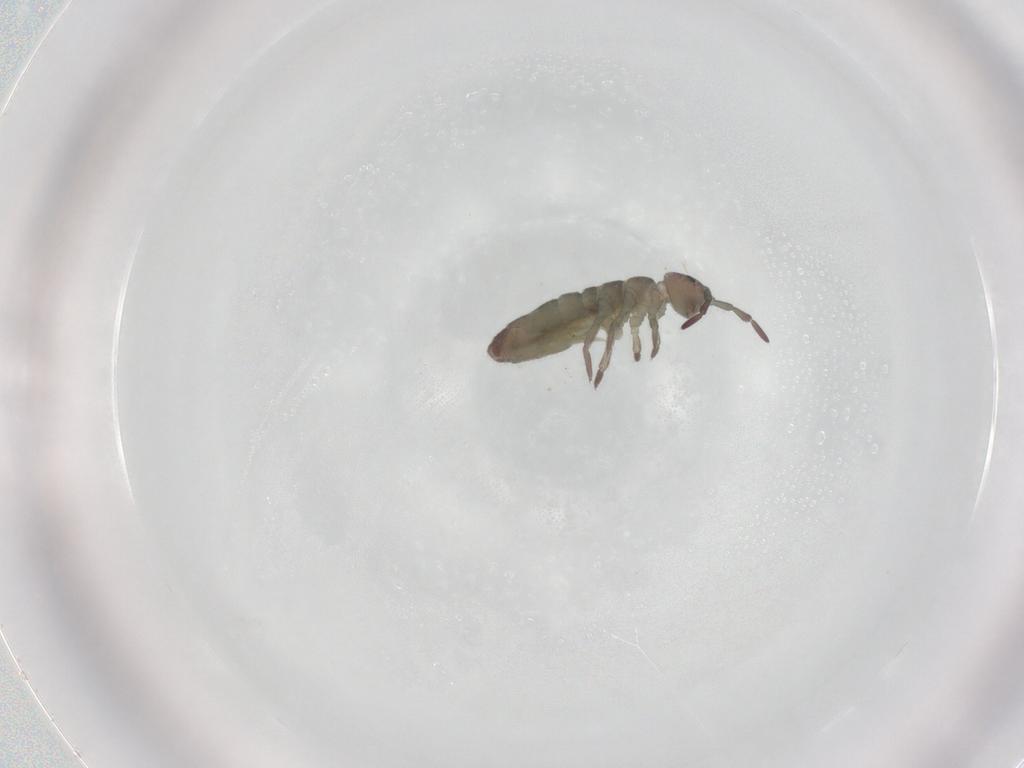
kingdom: Animalia
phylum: Arthropoda
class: Collembola
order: Entomobryomorpha
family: Isotomidae
